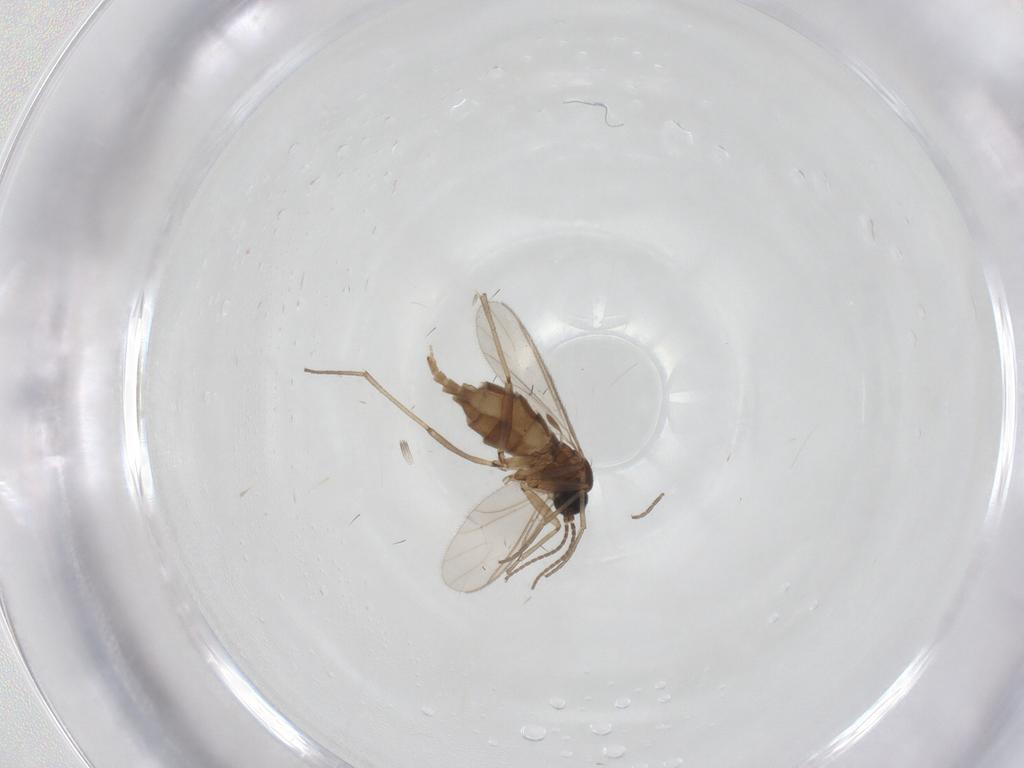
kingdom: Animalia
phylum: Arthropoda
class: Insecta
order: Diptera
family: Sciaridae
